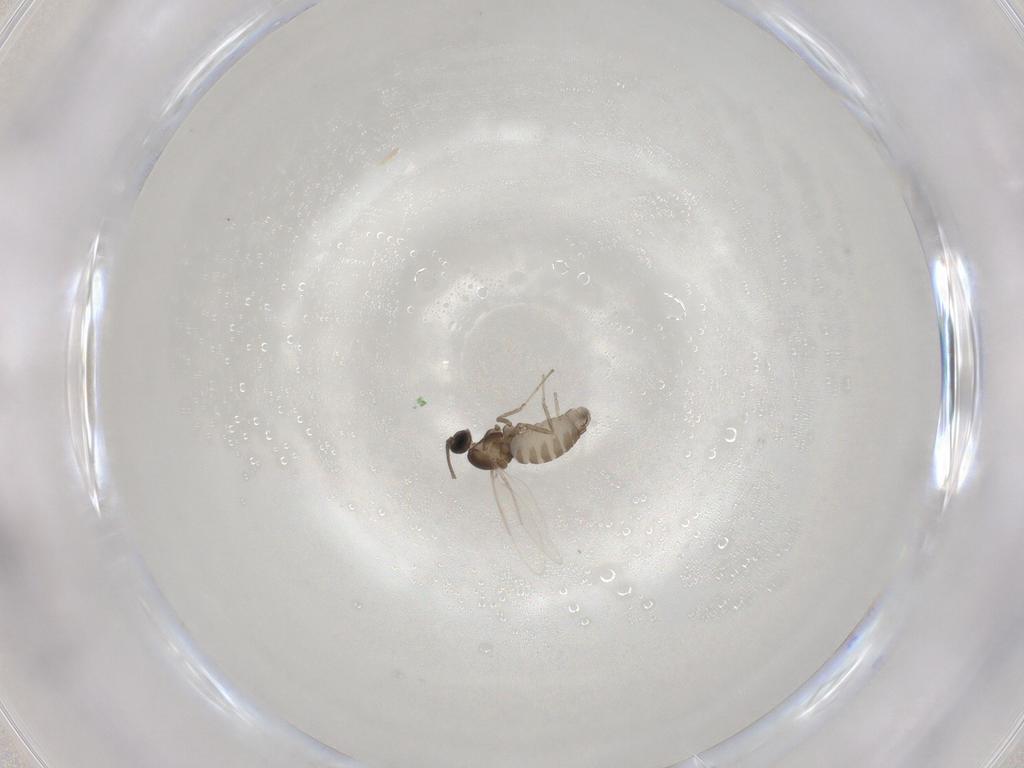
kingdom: Animalia
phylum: Arthropoda
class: Insecta
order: Diptera
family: Cecidomyiidae
